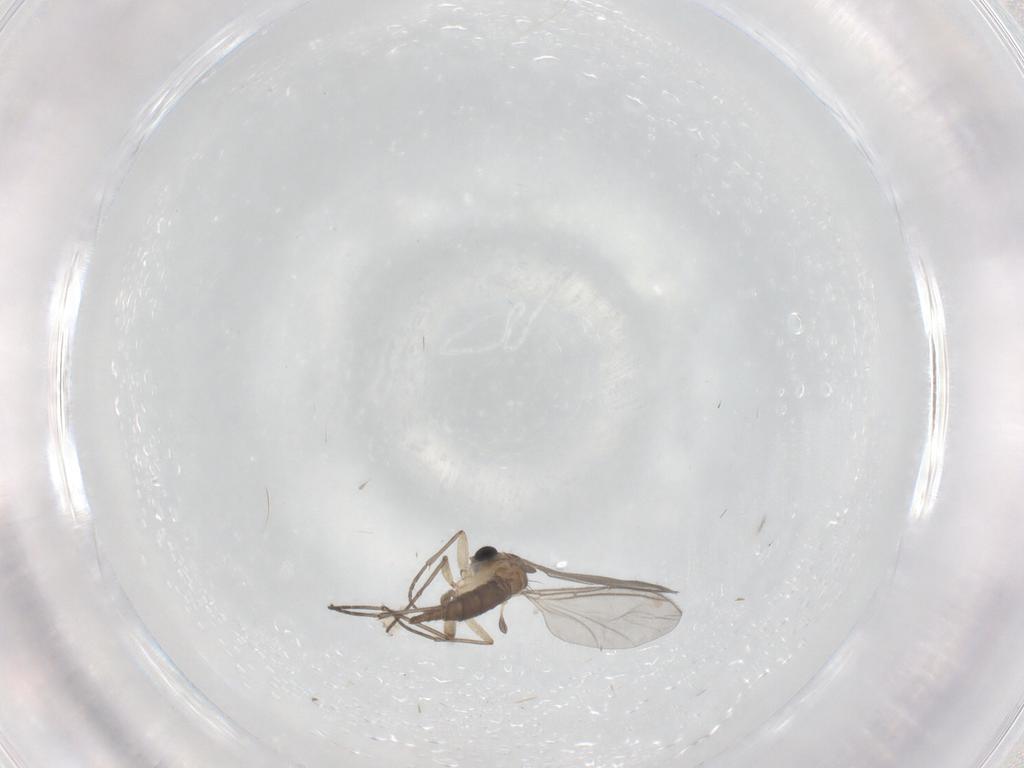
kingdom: Animalia
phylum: Arthropoda
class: Insecta
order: Diptera
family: Sciaridae
